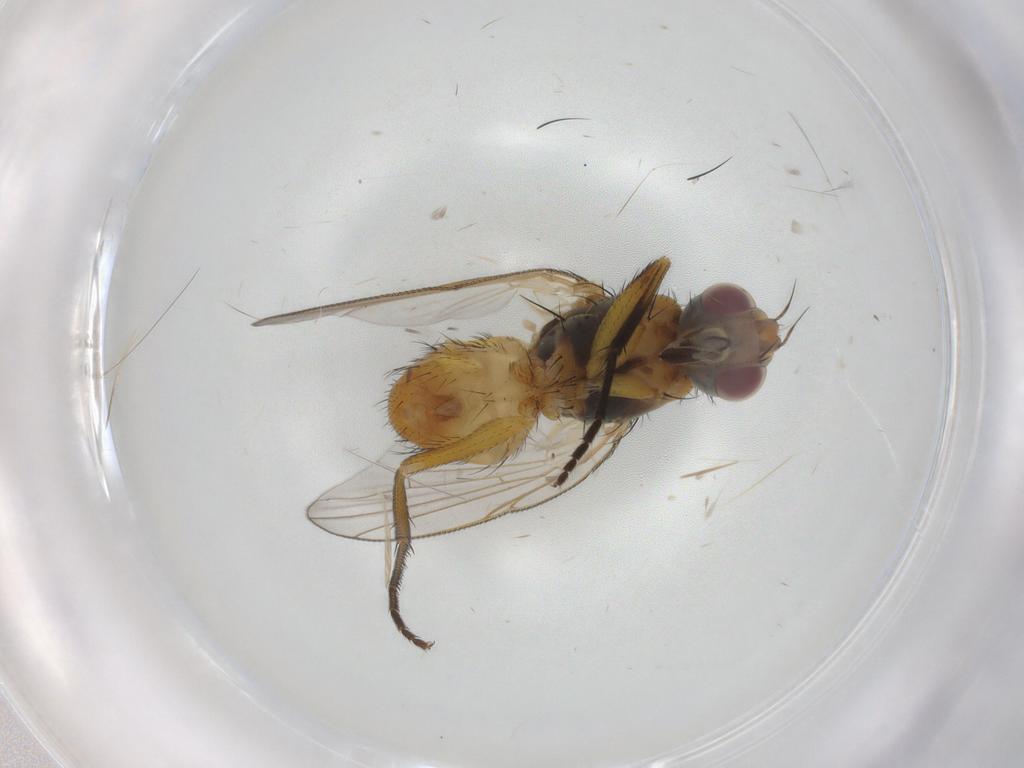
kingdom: Animalia
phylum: Arthropoda
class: Insecta
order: Diptera
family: Muscidae
